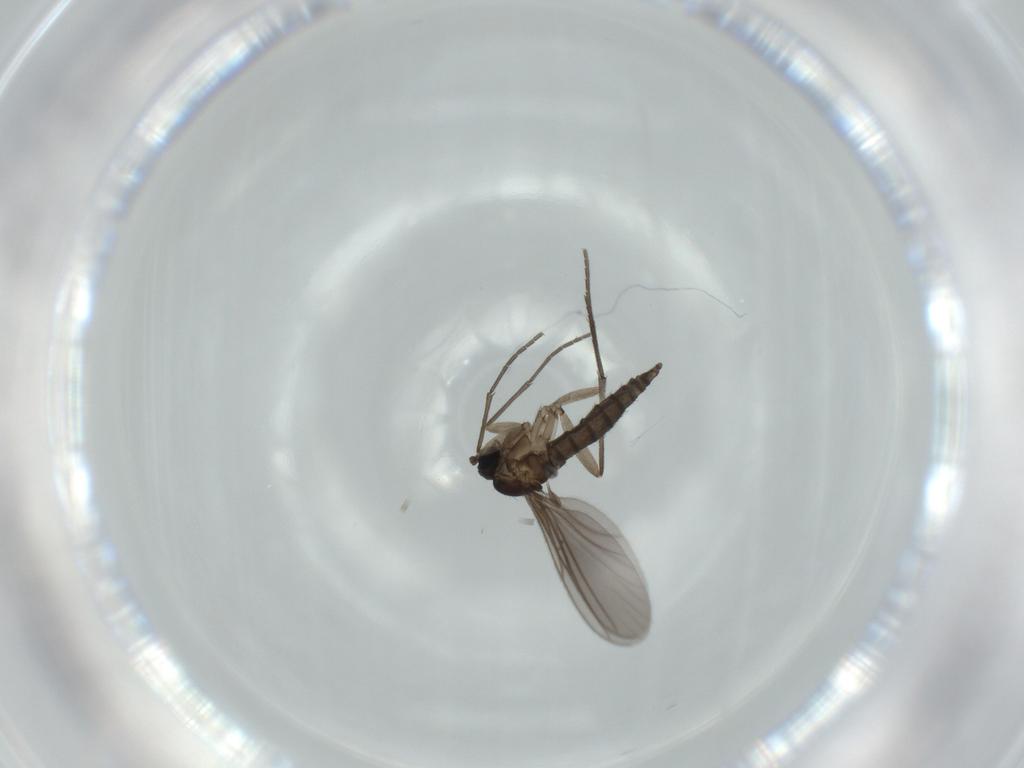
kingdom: Animalia
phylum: Arthropoda
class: Insecta
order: Diptera
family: Sciaridae
